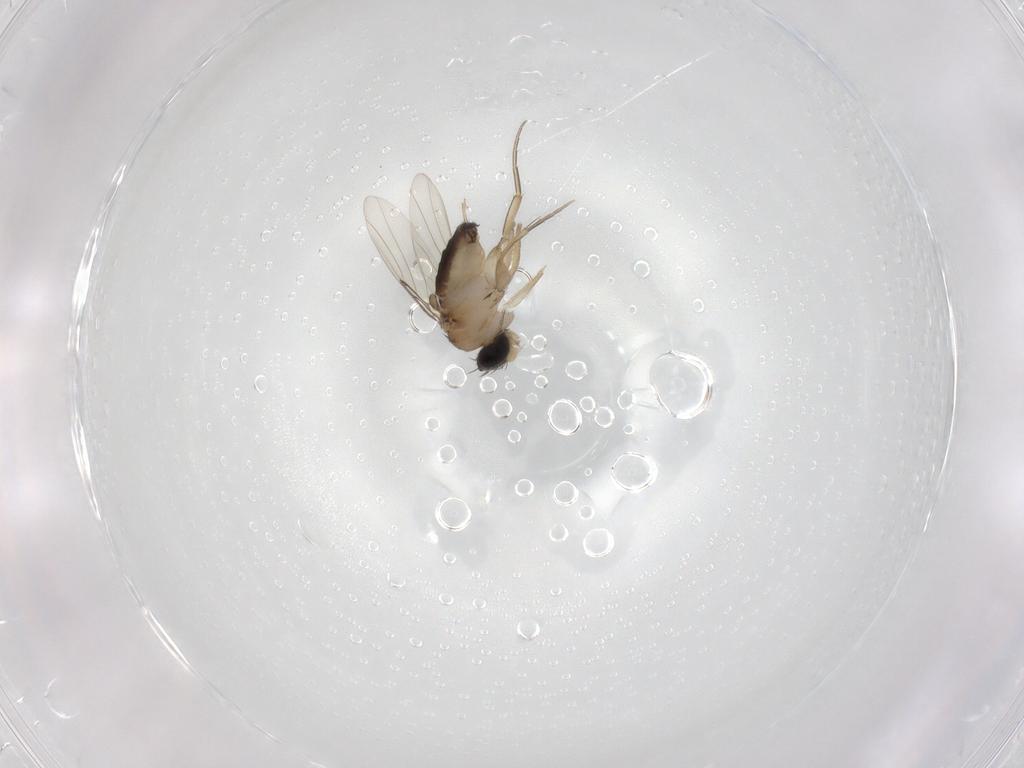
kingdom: Animalia
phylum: Arthropoda
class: Insecta
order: Diptera
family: Phoridae
